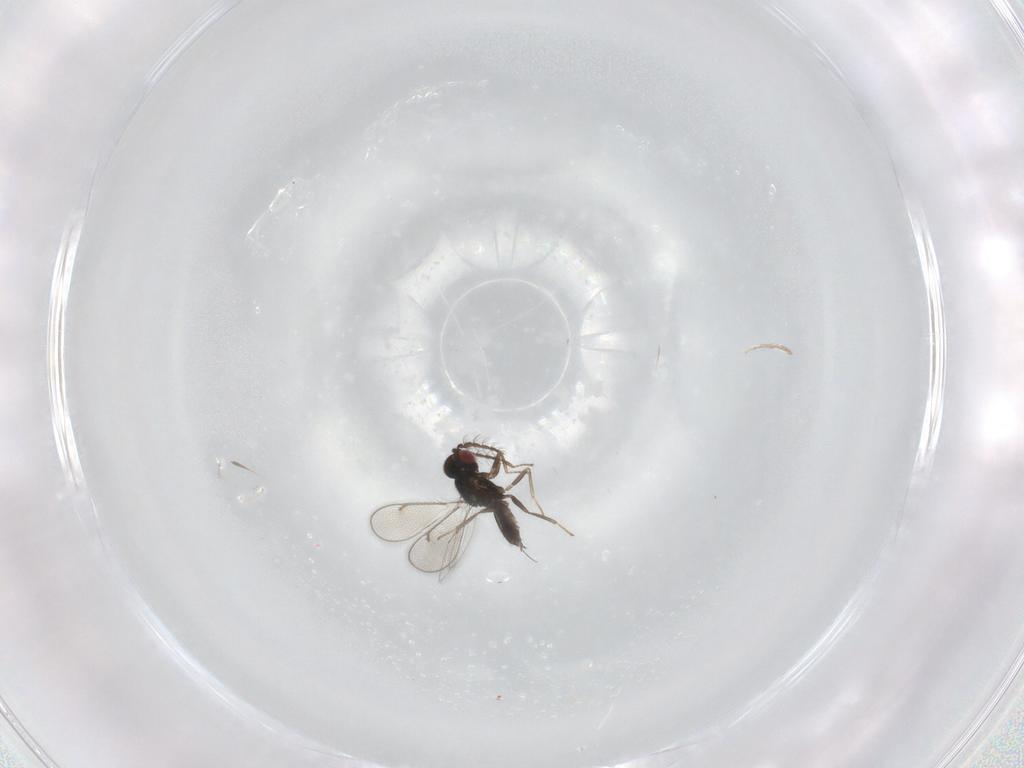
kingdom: Animalia
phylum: Arthropoda
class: Insecta
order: Hymenoptera
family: Eulophidae
